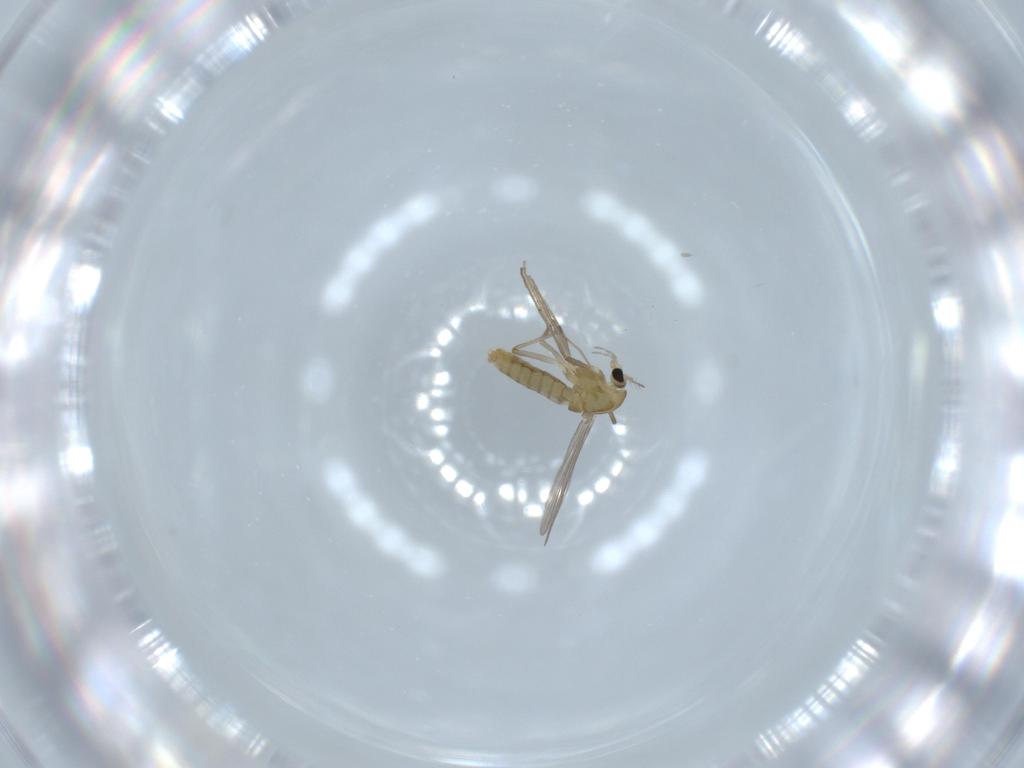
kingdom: Animalia
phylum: Arthropoda
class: Insecta
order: Diptera
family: Chironomidae
